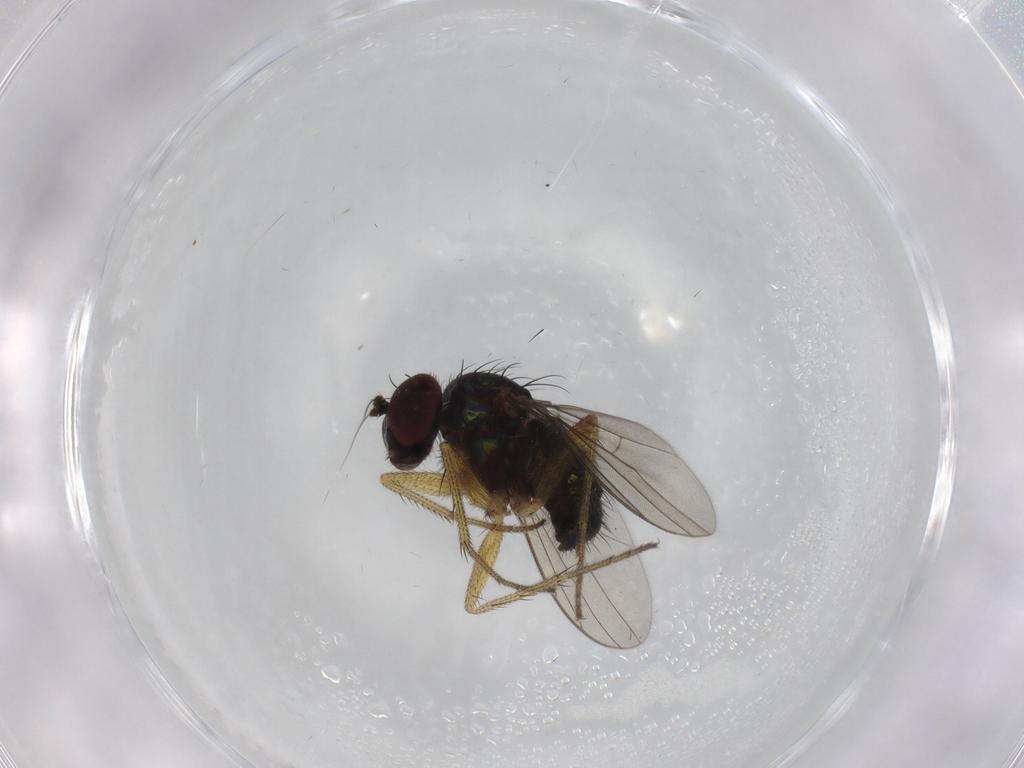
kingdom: Animalia
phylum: Arthropoda
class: Insecta
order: Diptera
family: Dolichopodidae
